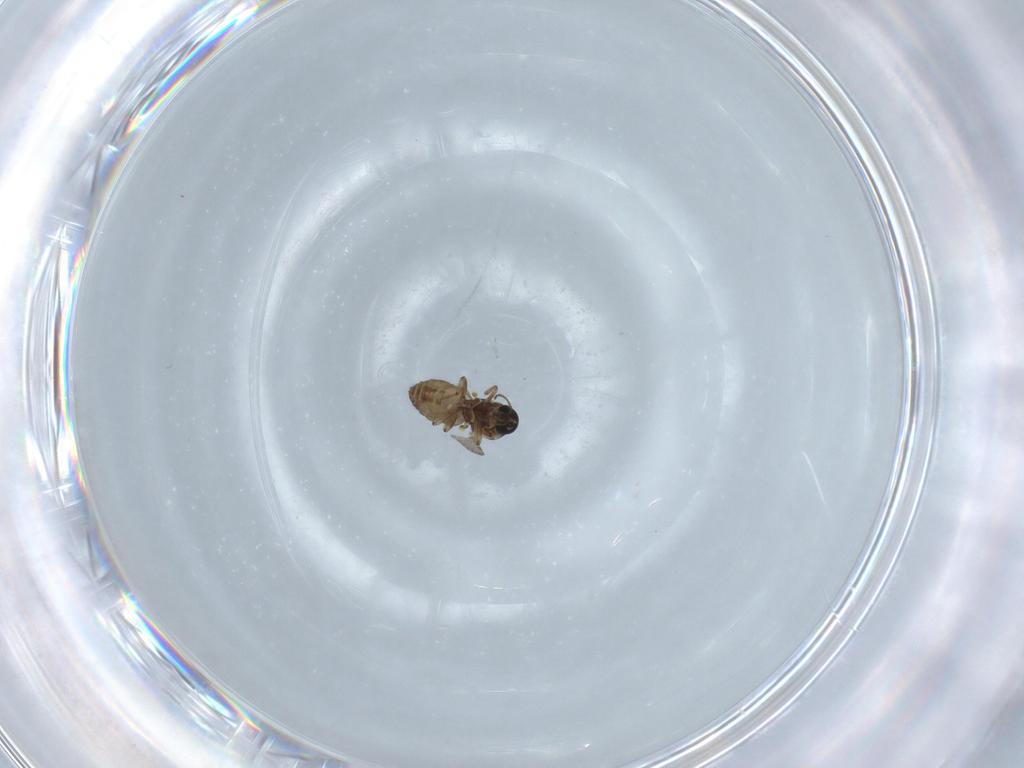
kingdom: Animalia
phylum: Arthropoda
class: Insecta
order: Diptera
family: Ceratopogonidae
